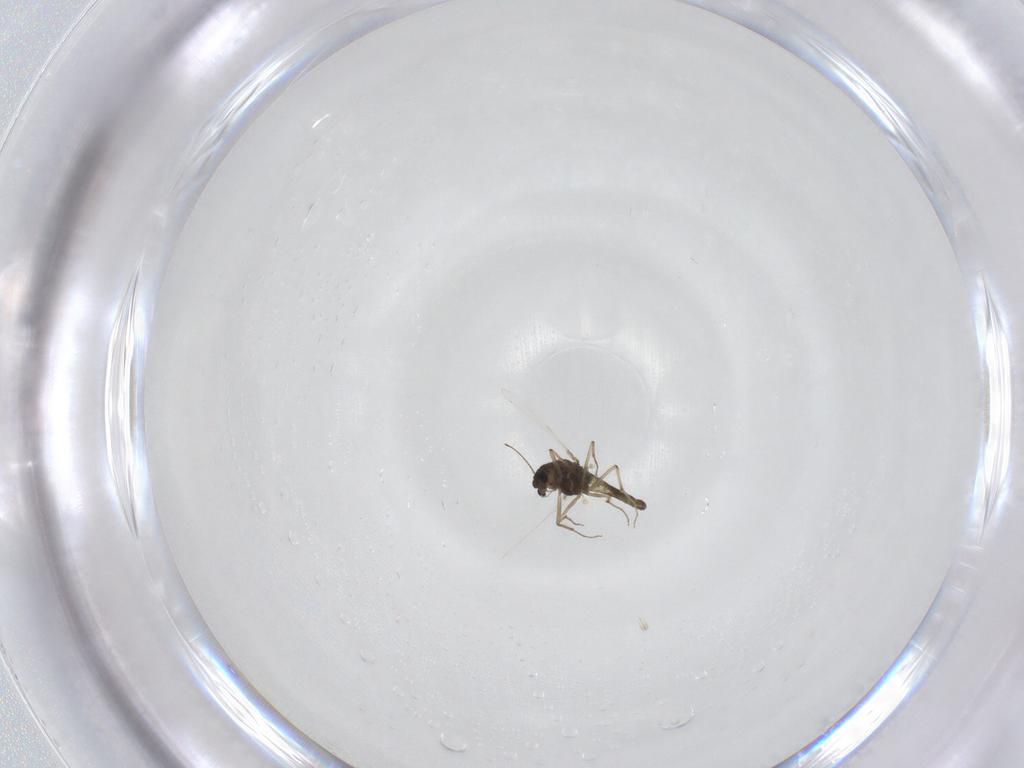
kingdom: Animalia
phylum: Arthropoda
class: Insecta
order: Diptera
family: Chironomidae
